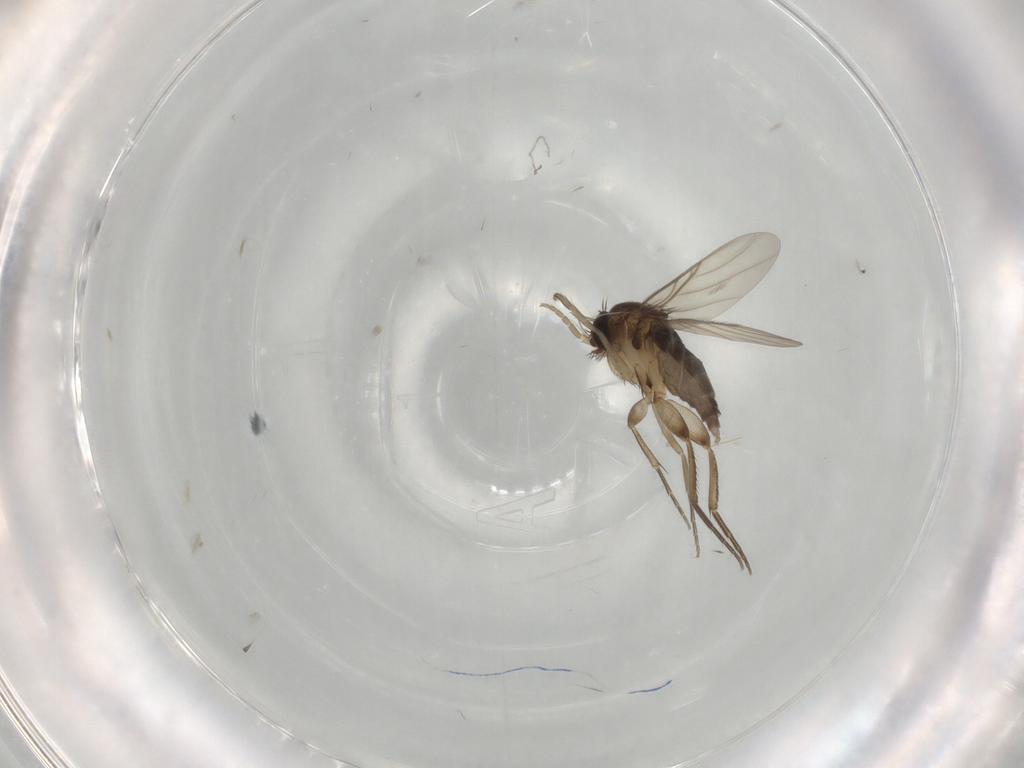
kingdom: Animalia
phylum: Arthropoda
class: Insecta
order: Diptera
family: Phoridae
